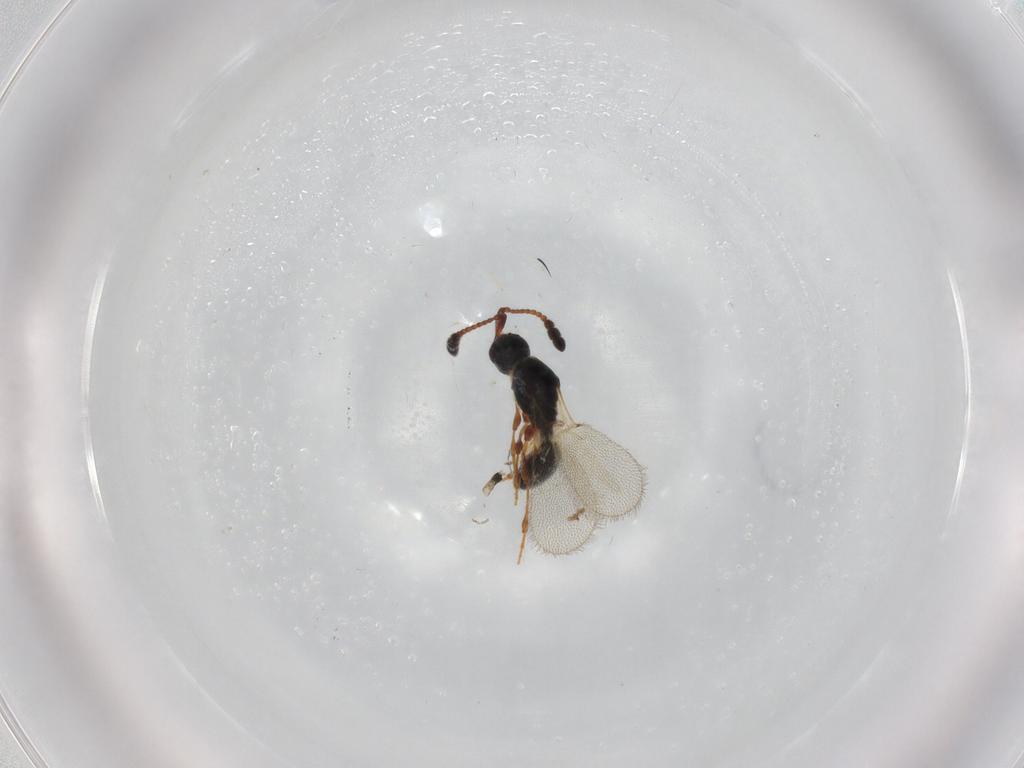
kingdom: Animalia
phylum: Arthropoda
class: Insecta
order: Hymenoptera
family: Diapriidae
